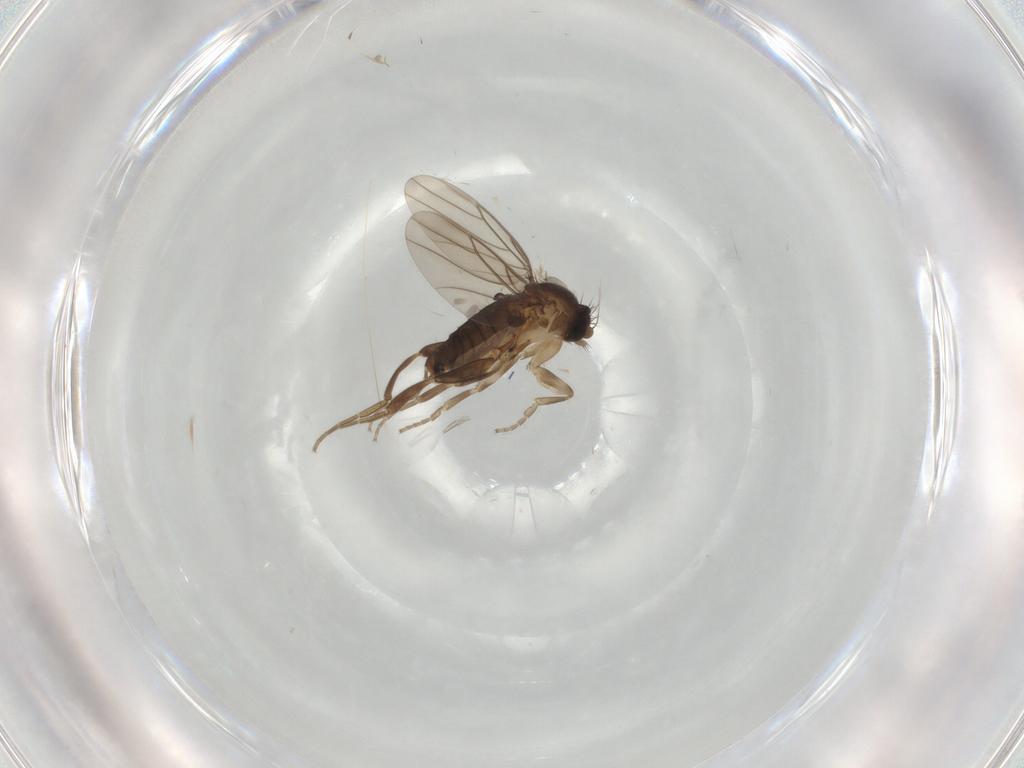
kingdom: Animalia
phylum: Arthropoda
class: Insecta
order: Diptera
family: Phoridae
